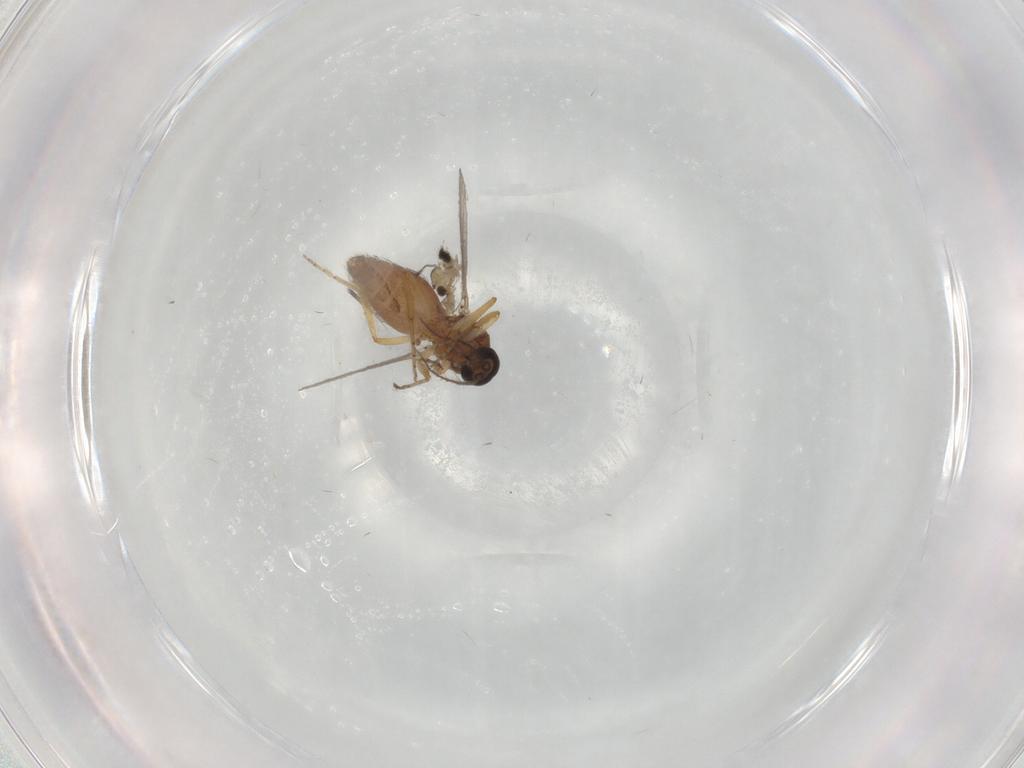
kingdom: Animalia
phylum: Arthropoda
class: Insecta
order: Diptera
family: Cecidomyiidae
